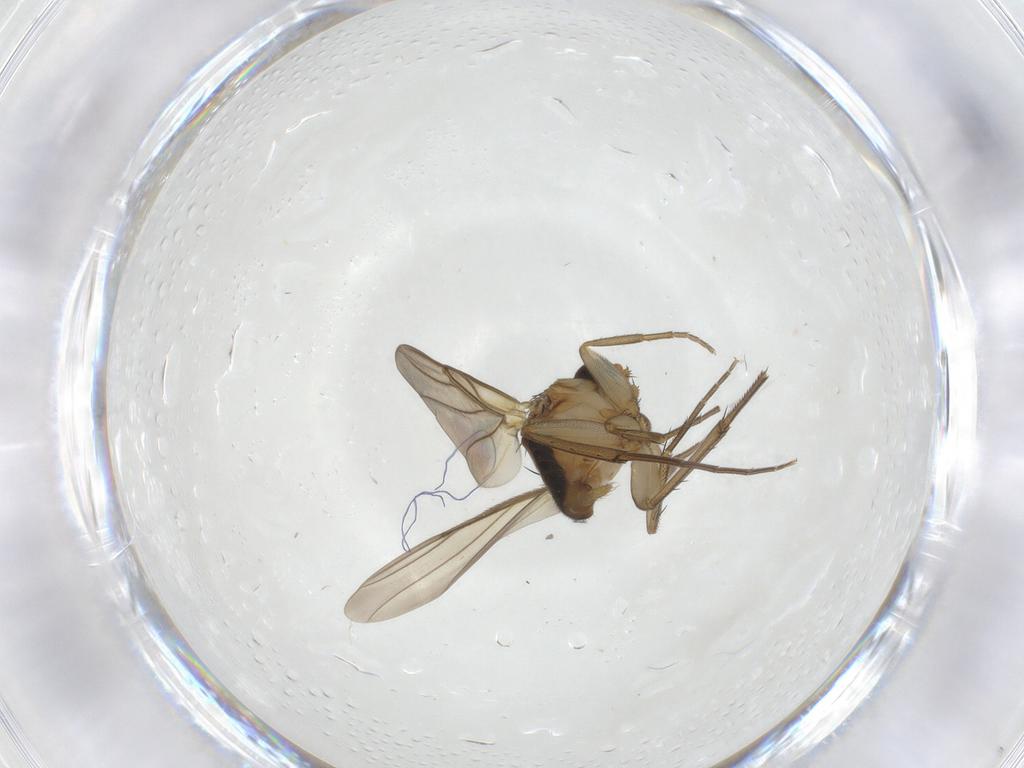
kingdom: Animalia
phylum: Arthropoda
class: Insecta
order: Diptera
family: Phoridae
